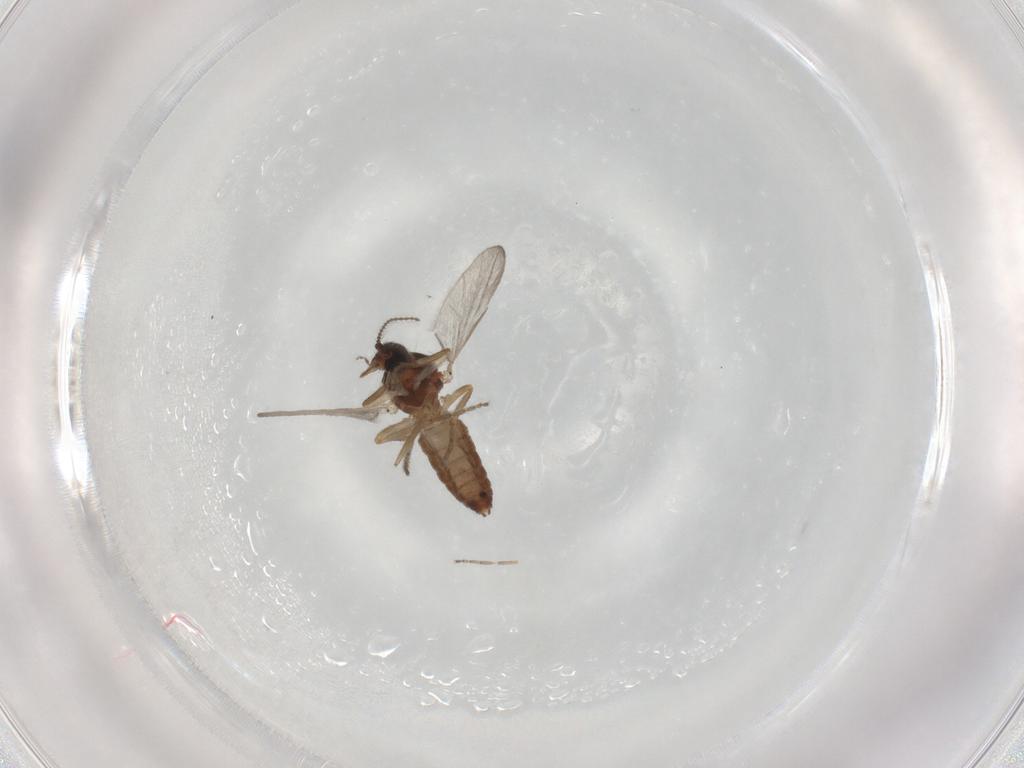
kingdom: Animalia
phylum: Arthropoda
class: Insecta
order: Diptera
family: Ceratopogonidae
